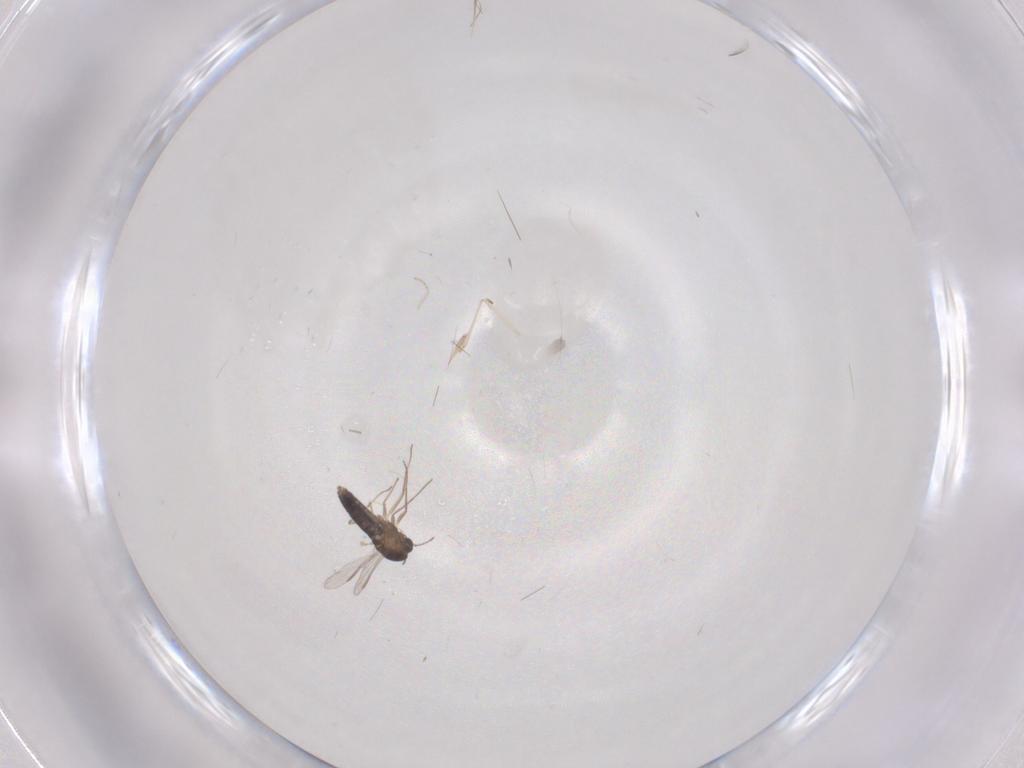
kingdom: Animalia
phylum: Arthropoda
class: Insecta
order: Diptera
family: Chironomidae
